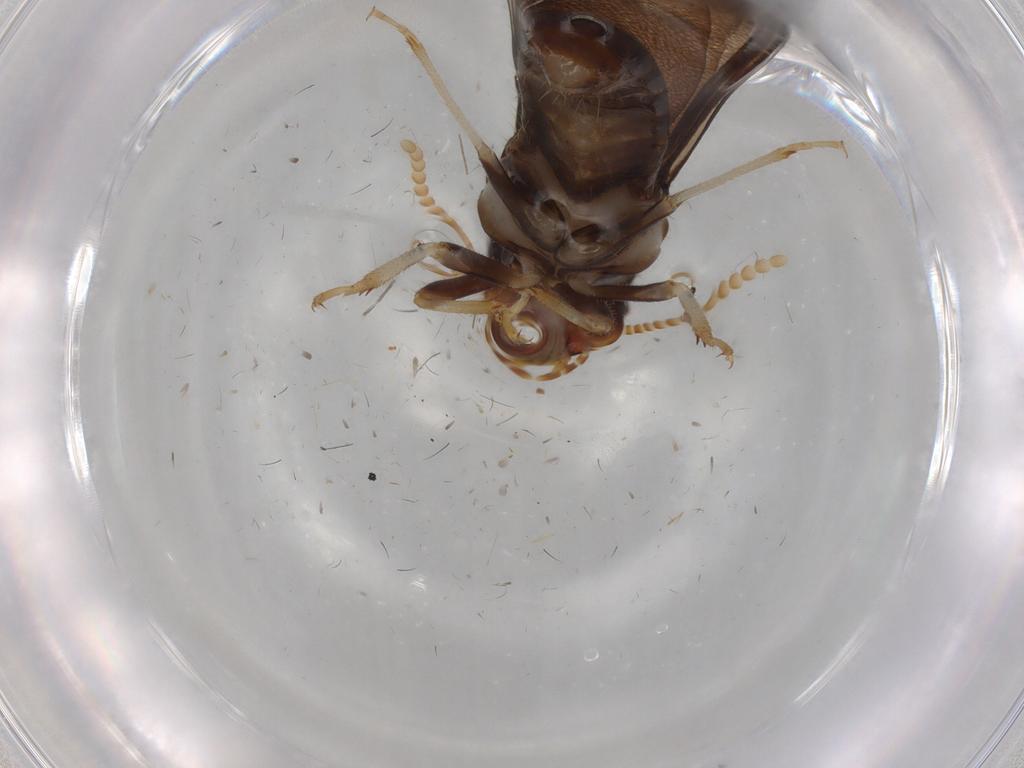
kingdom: Animalia
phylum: Arthropoda
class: Insecta
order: Blattodea
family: Kalotermitidae
